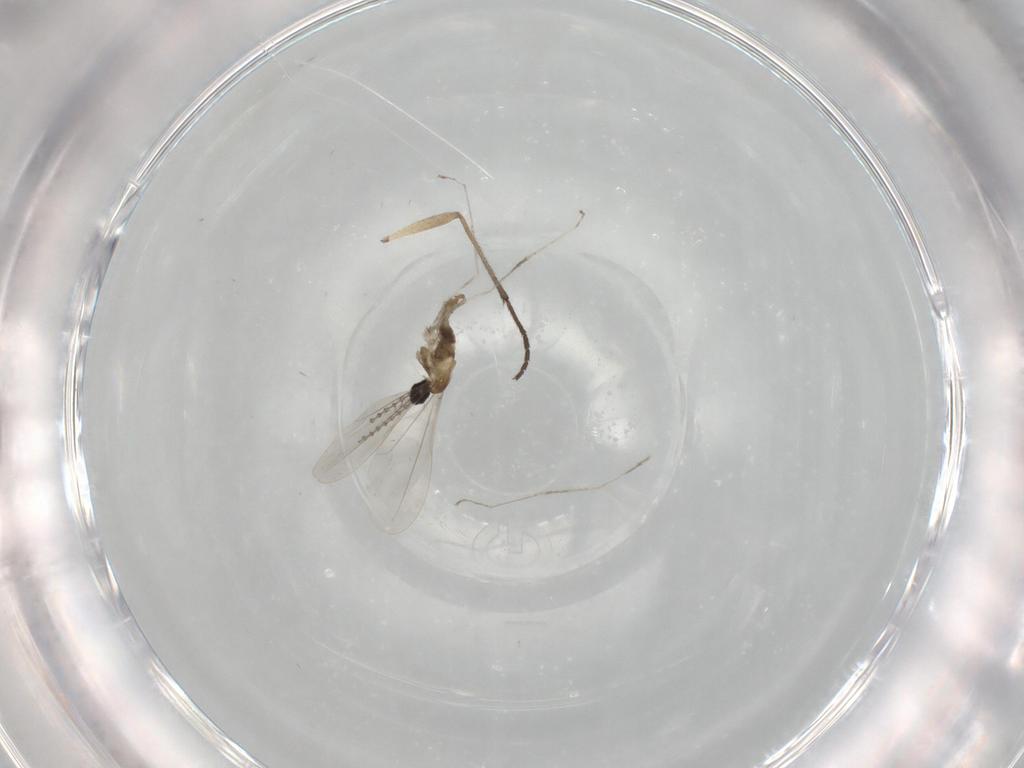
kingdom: Animalia
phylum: Arthropoda
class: Insecta
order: Diptera
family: Sciaridae
